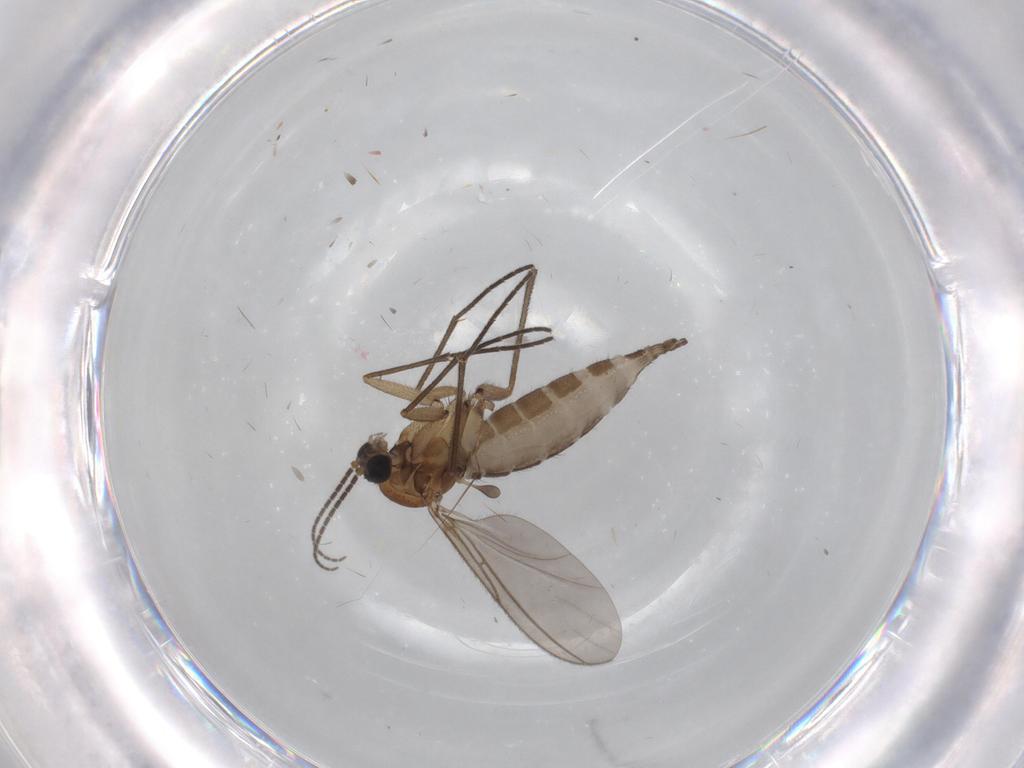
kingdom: Animalia
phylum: Arthropoda
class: Insecta
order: Diptera
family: Sciaridae
